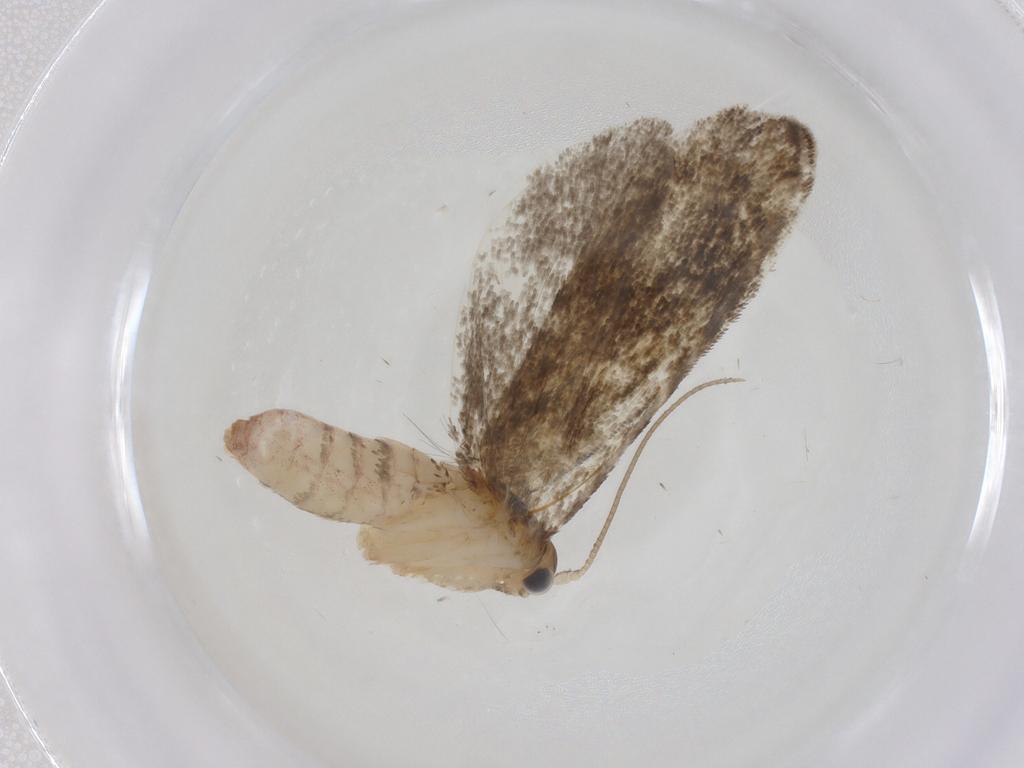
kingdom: Animalia
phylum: Arthropoda
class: Insecta
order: Lepidoptera
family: Tineidae
